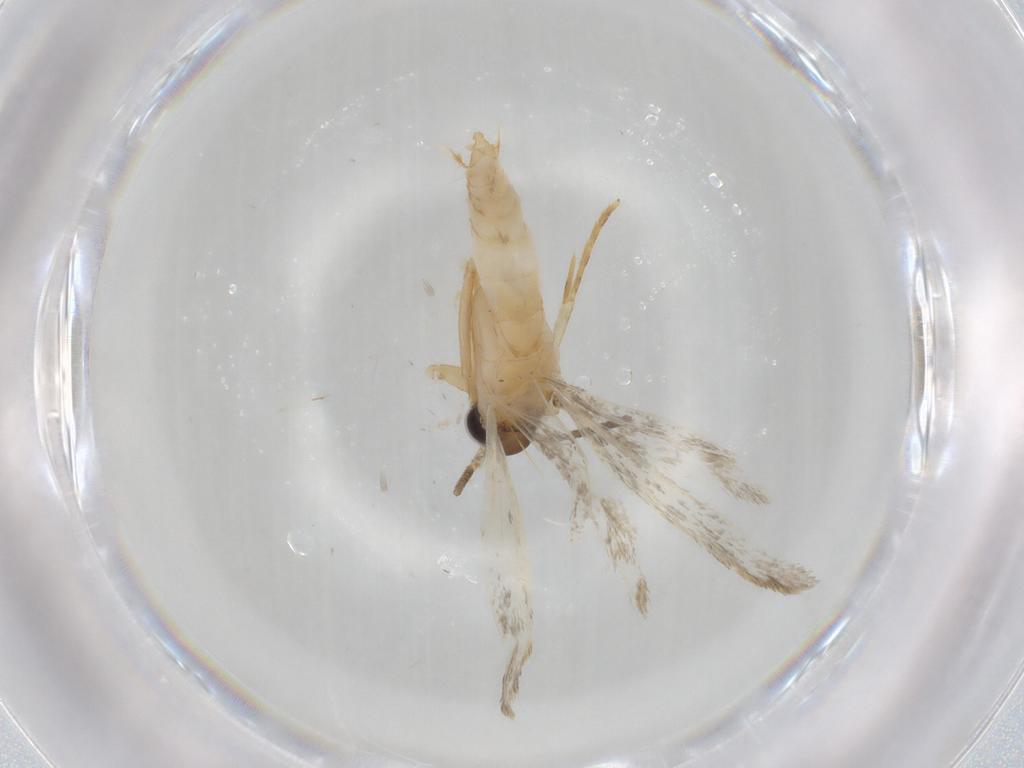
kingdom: Animalia
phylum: Arthropoda
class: Insecta
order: Lepidoptera
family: Autostichidae
